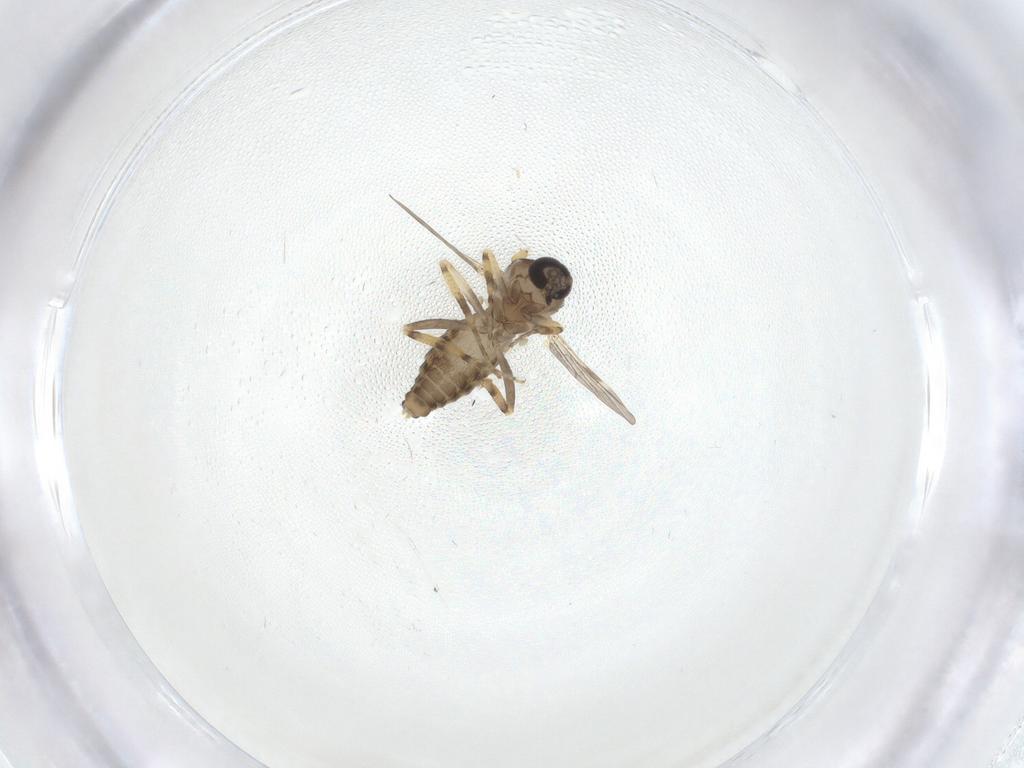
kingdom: Animalia
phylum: Arthropoda
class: Insecta
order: Diptera
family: Ceratopogonidae
